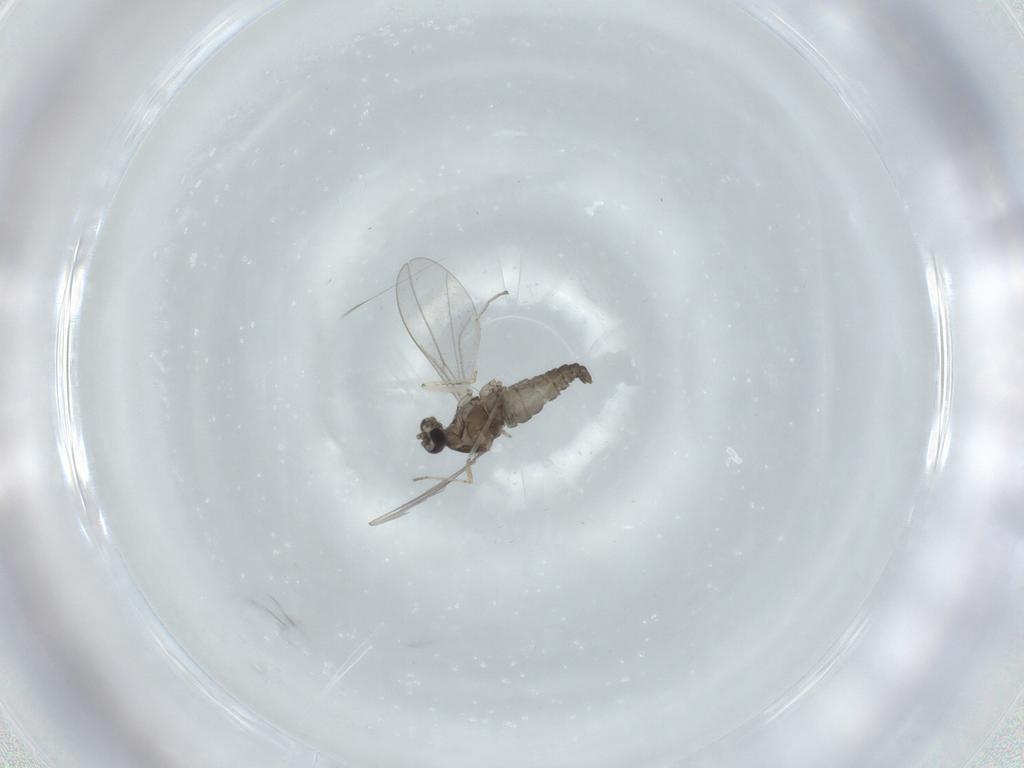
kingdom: Animalia
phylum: Arthropoda
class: Insecta
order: Diptera
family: Cecidomyiidae
